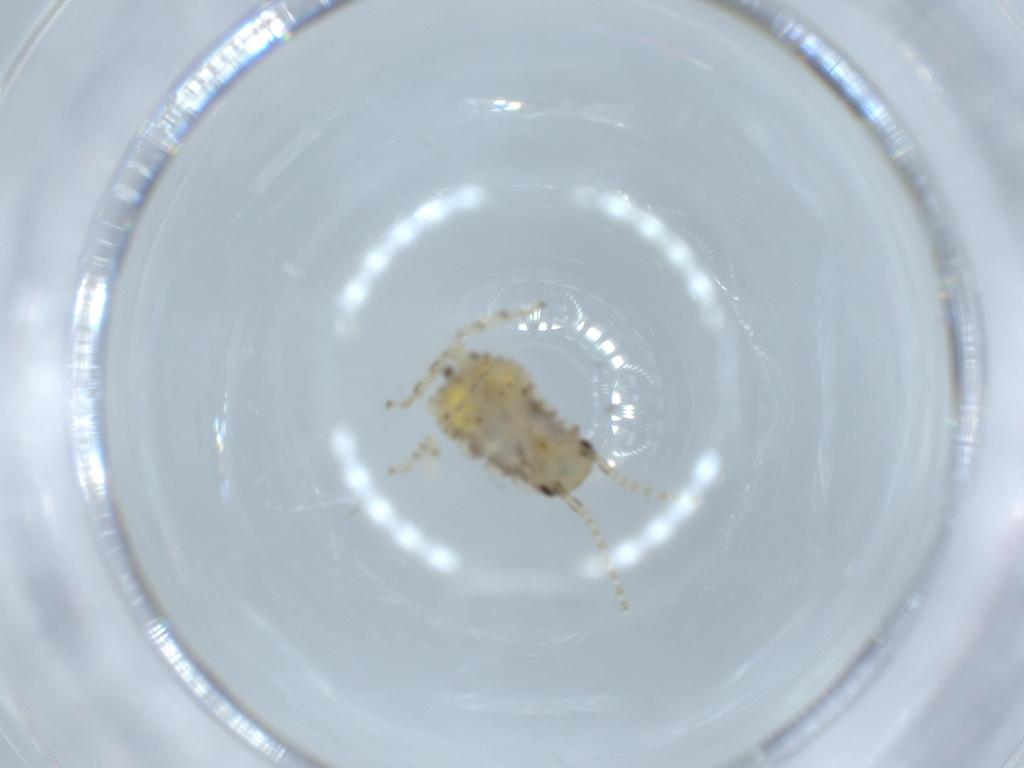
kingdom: Animalia
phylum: Arthropoda
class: Insecta
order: Blattodea
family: Ectobiidae
